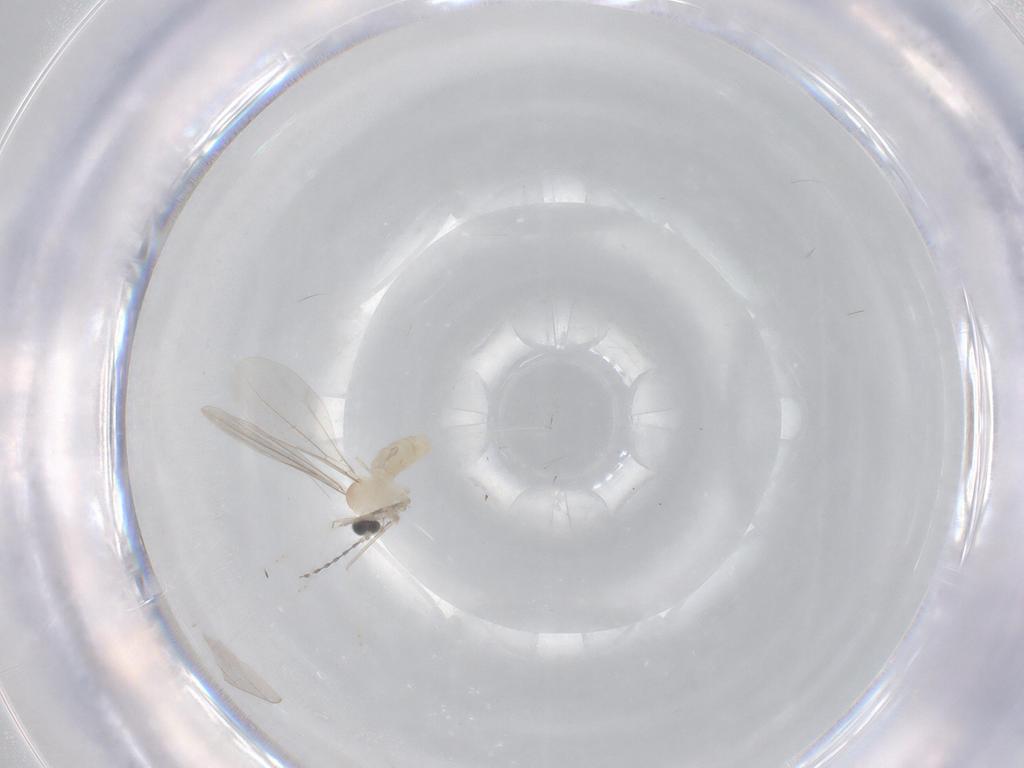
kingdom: Animalia
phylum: Arthropoda
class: Insecta
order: Diptera
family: Cecidomyiidae
